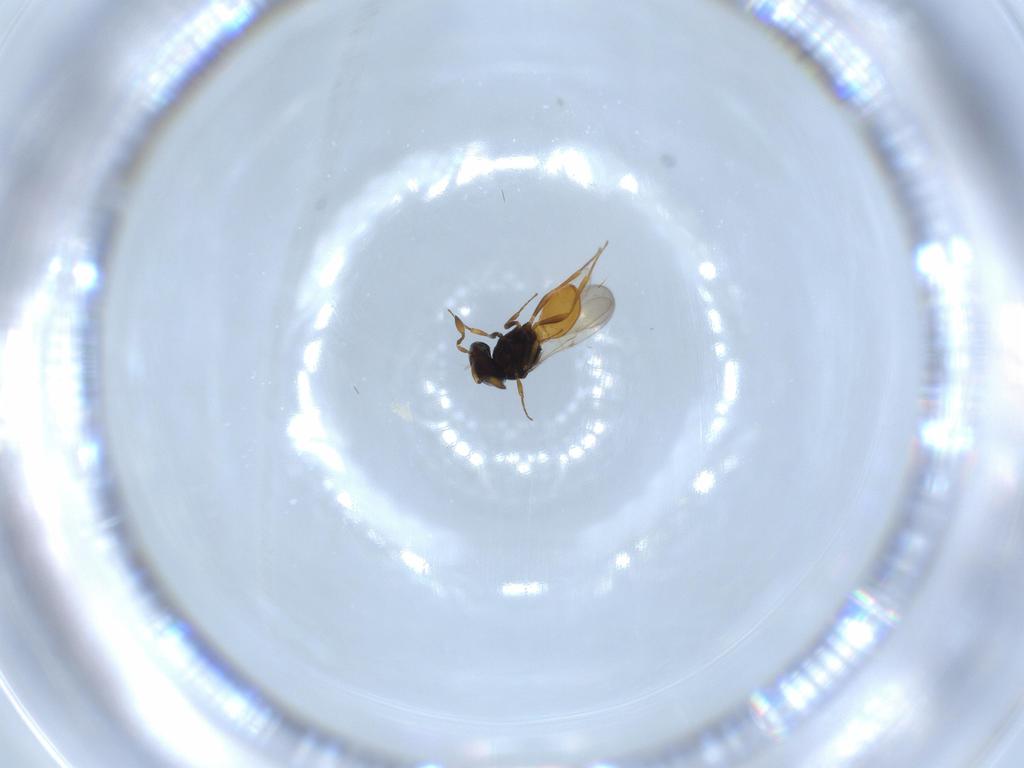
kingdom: Animalia
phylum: Arthropoda
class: Insecta
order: Hymenoptera
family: Scelionidae
